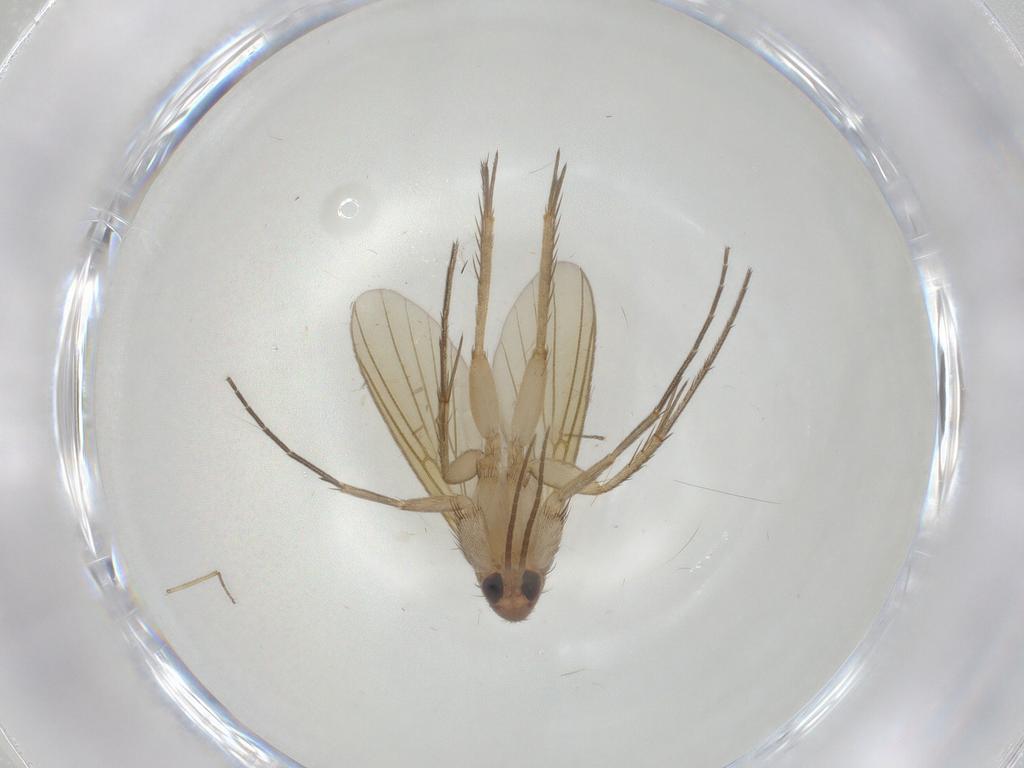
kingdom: Animalia
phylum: Arthropoda
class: Insecta
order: Diptera
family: Mycetophilidae
